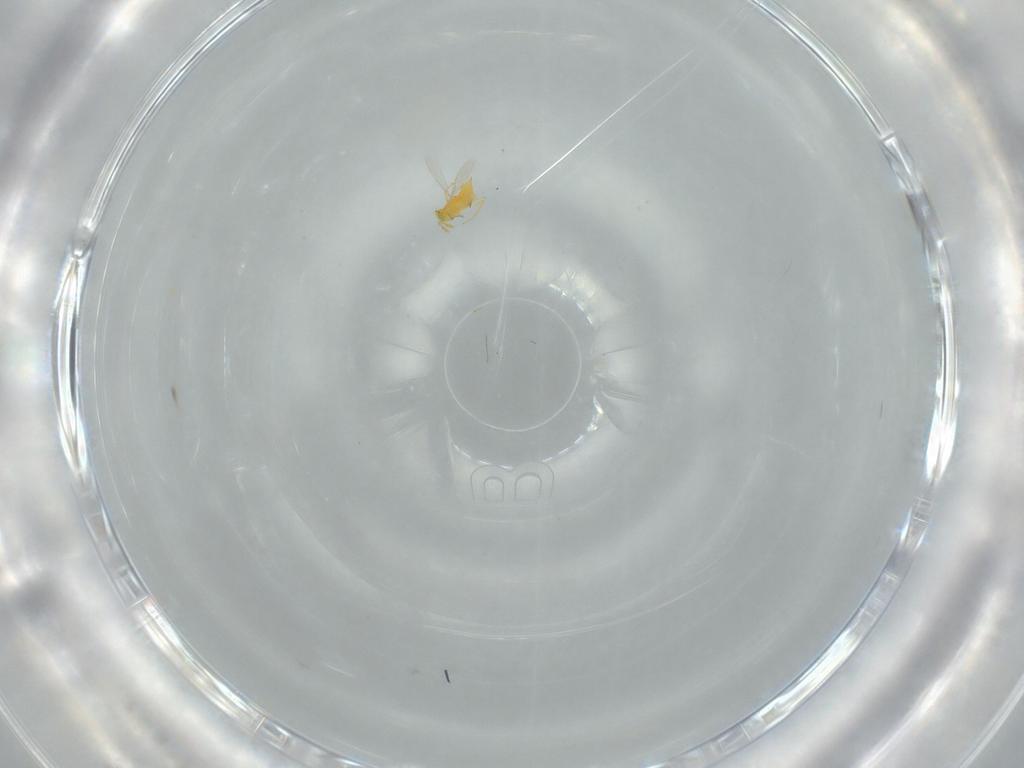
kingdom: Animalia
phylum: Arthropoda
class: Insecta
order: Hymenoptera
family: Aphelinidae
